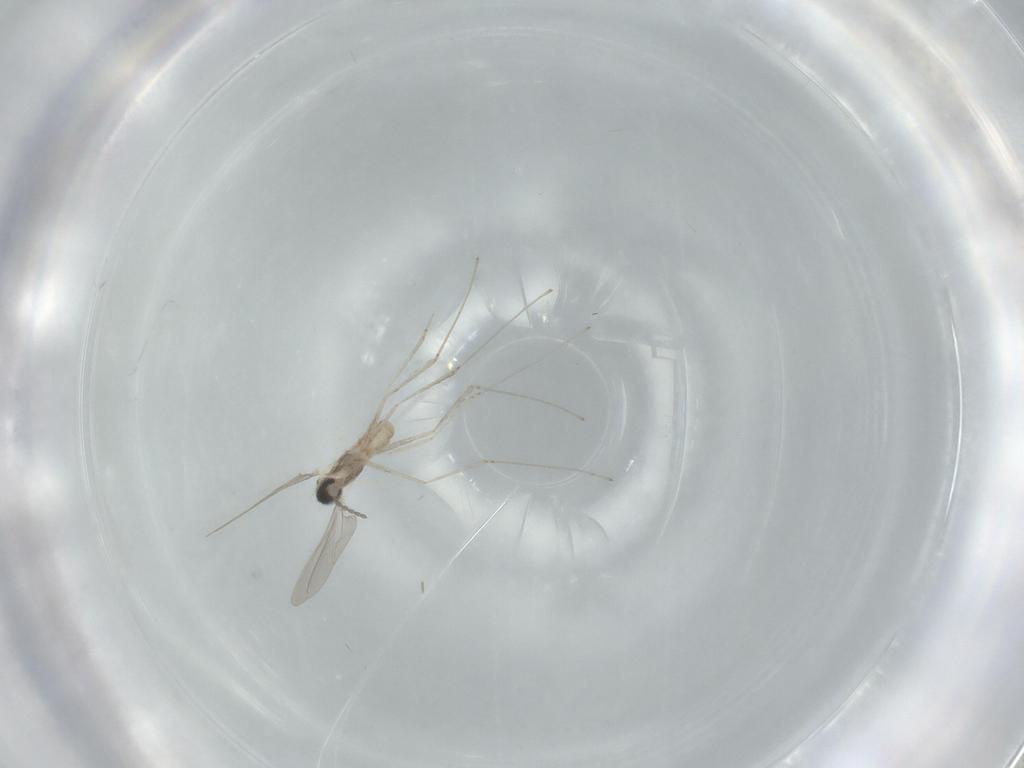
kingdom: Animalia
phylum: Arthropoda
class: Insecta
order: Diptera
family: Cecidomyiidae
